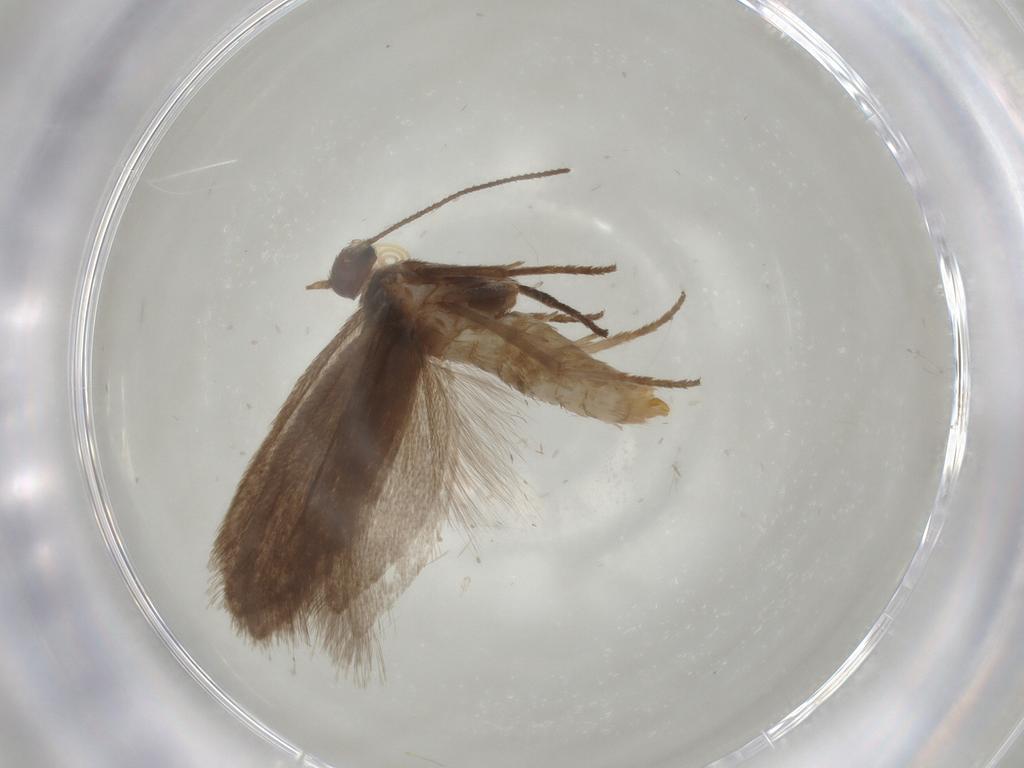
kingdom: Animalia
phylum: Arthropoda
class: Insecta
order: Lepidoptera
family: Limacodidae
